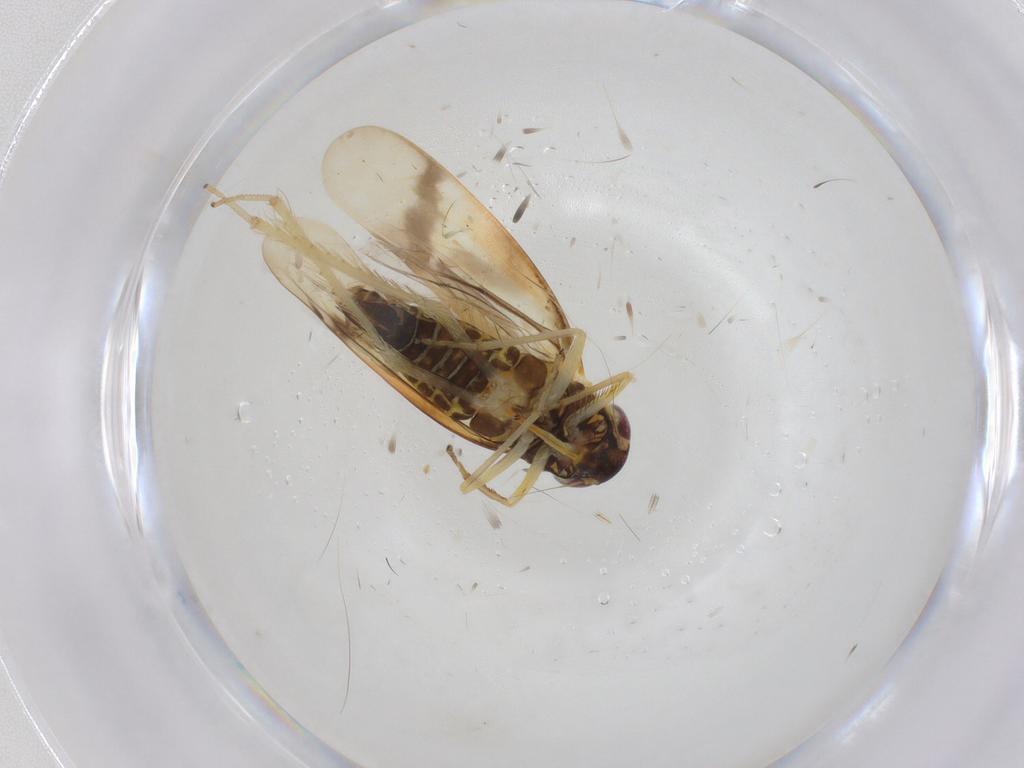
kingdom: Animalia
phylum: Arthropoda
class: Insecta
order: Hemiptera
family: Cicadellidae
